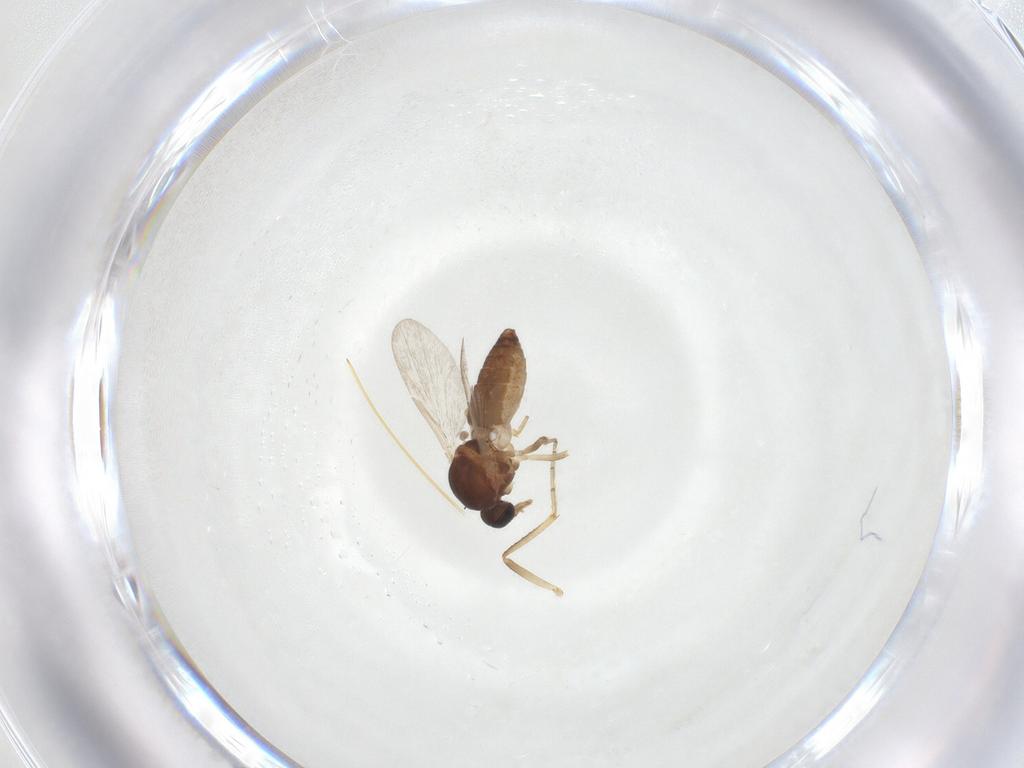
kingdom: Animalia
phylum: Arthropoda
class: Insecta
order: Diptera
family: Ceratopogonidae
